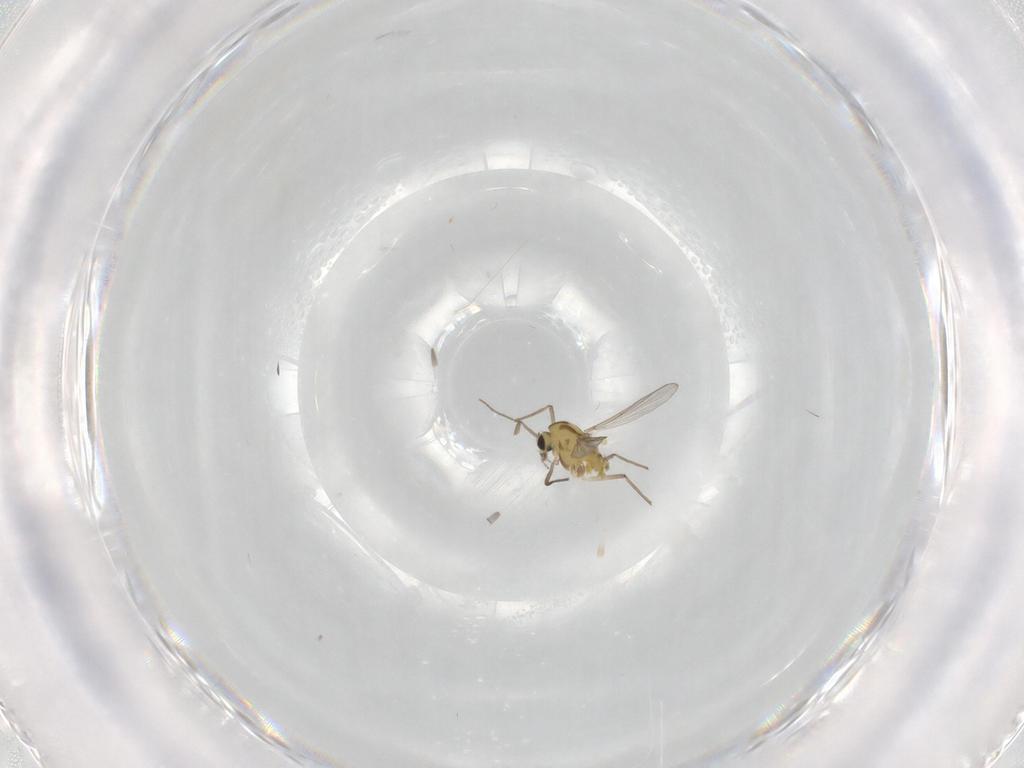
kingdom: Animalia
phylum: Arthropoda
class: Insecta
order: Diptera
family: Chironomidae
